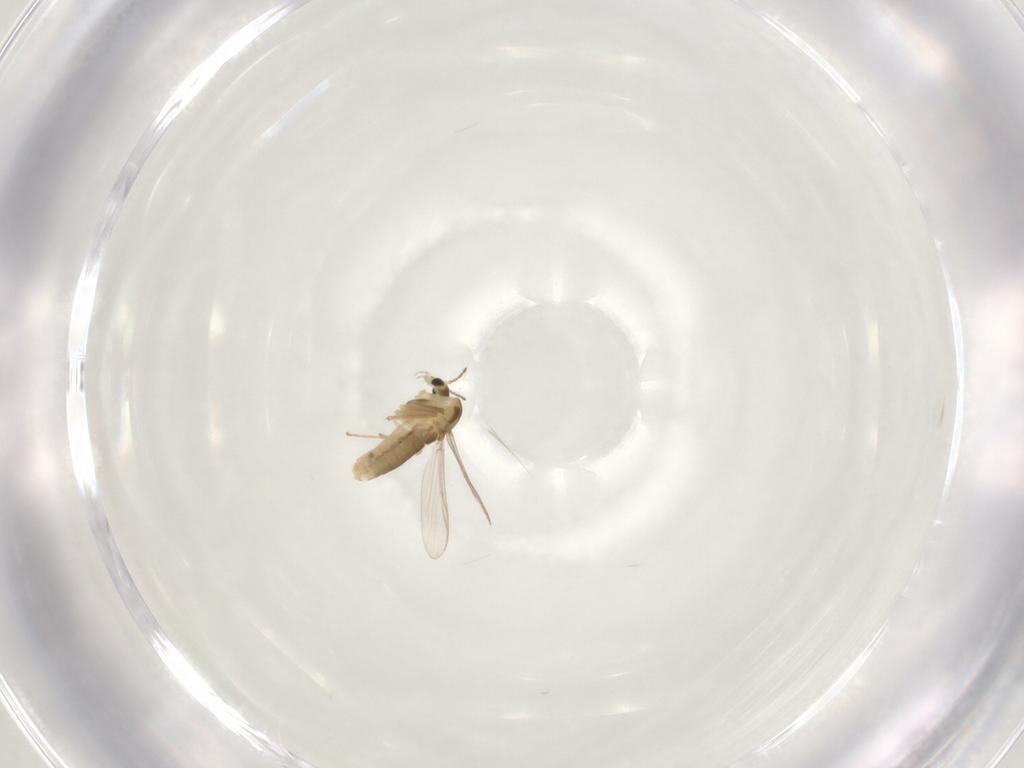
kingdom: Animalia
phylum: Arthropoda
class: Insecta
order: Diptera
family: Chironomidae
